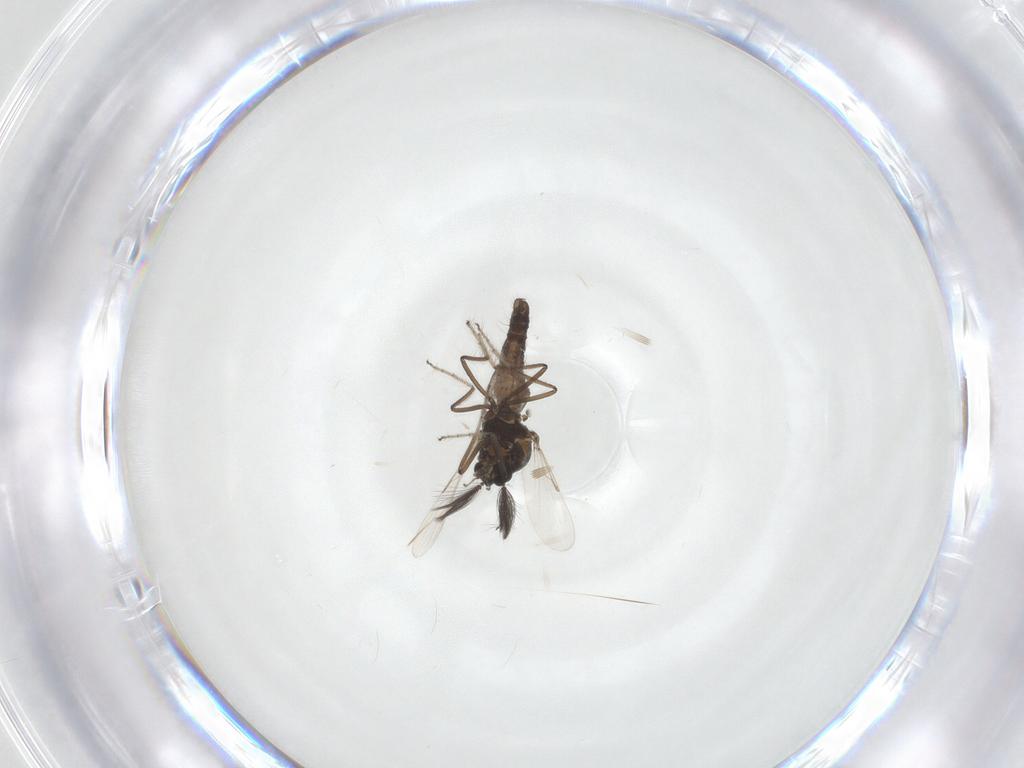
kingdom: Animalia
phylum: Arthropoda
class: Insecta
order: Diptera
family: Ceratopogonidae
